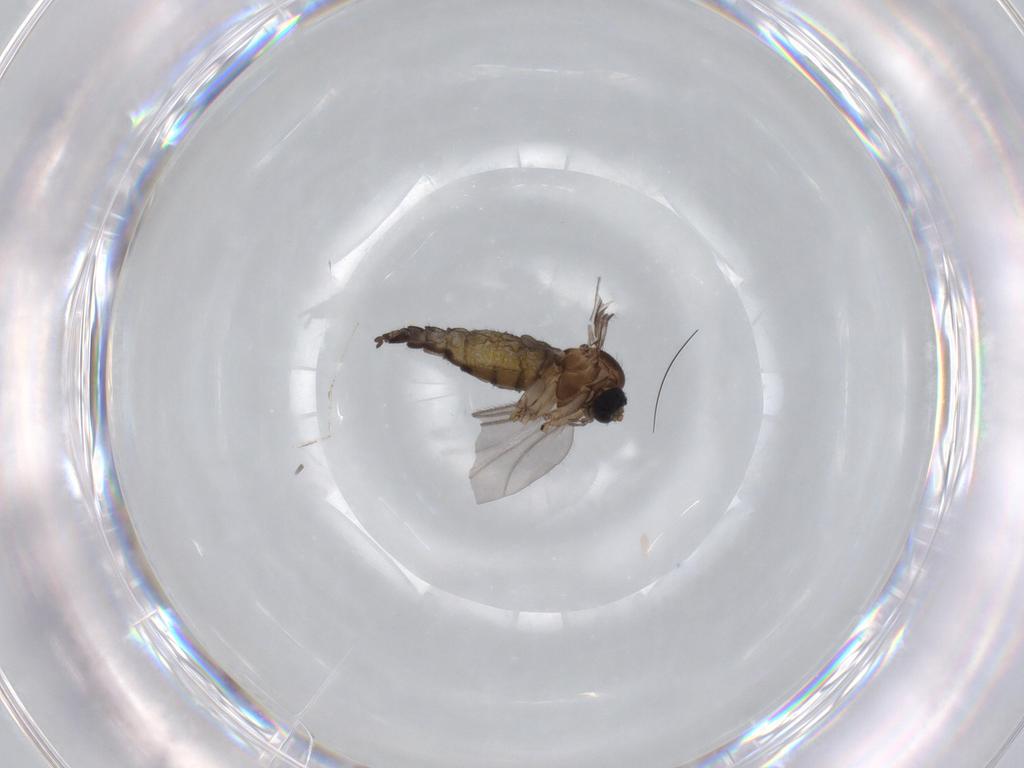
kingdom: Animalia
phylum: Arthropoda
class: Insecta
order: Diptera
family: Sciaridae
